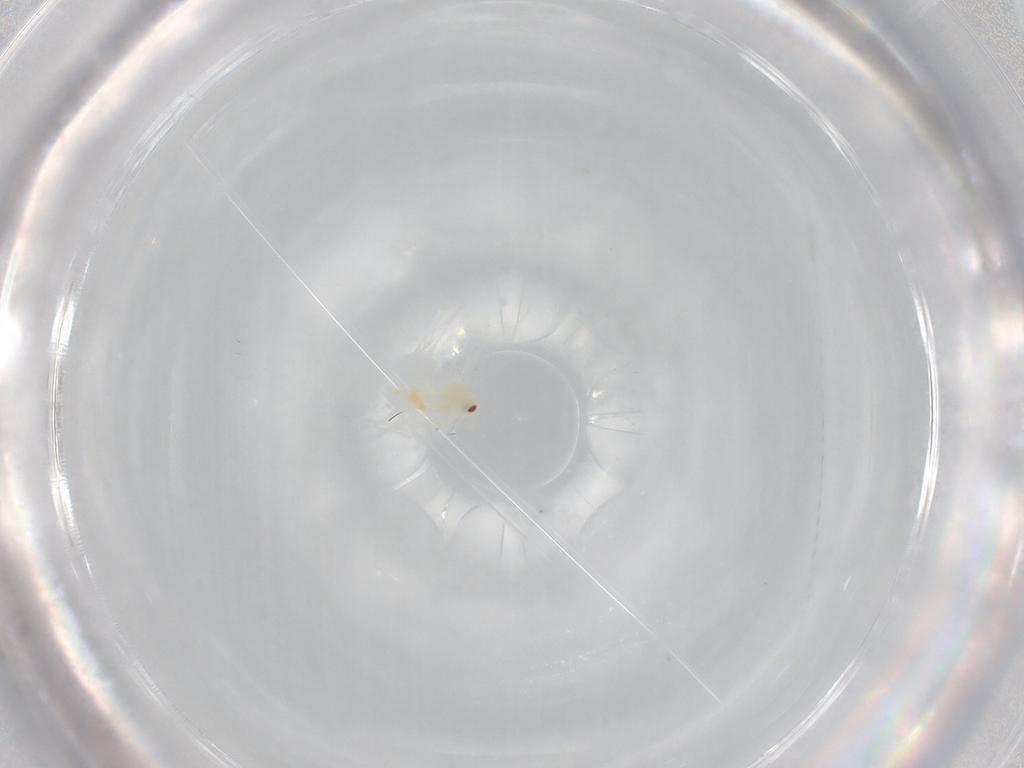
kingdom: Animalia
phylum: Arthropoda
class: Insecta
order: Hemiptera
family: Aleyrodidae
